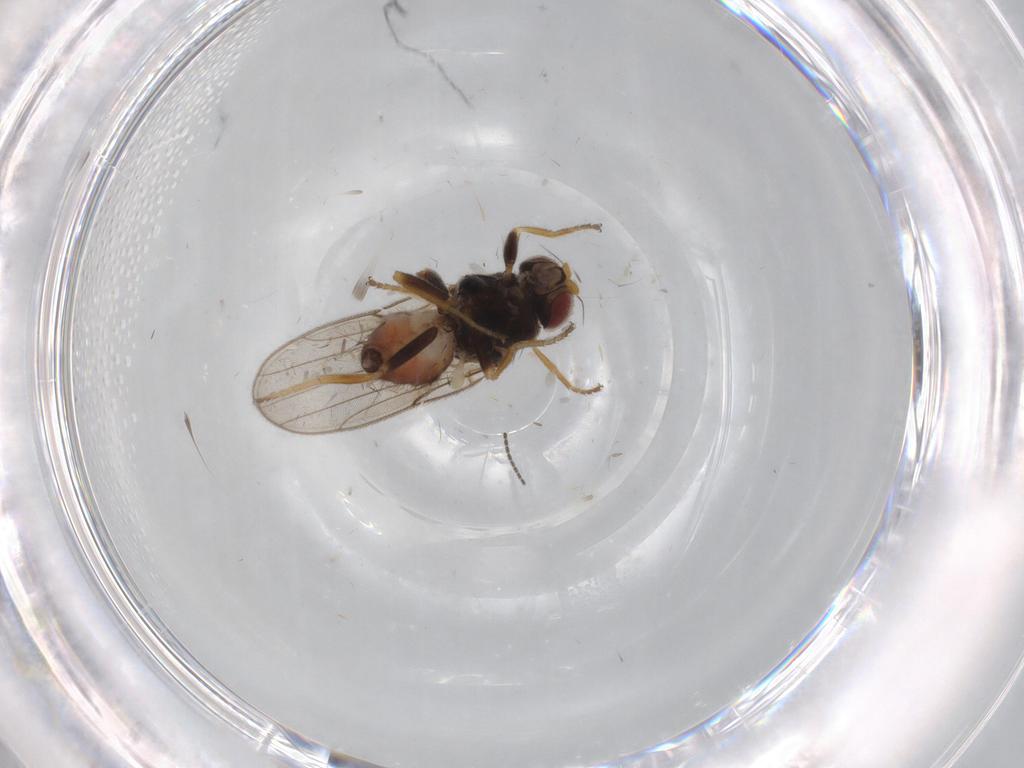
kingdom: Animalia
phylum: Arthropoda
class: Insecta
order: Diptera
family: Chloropidae
